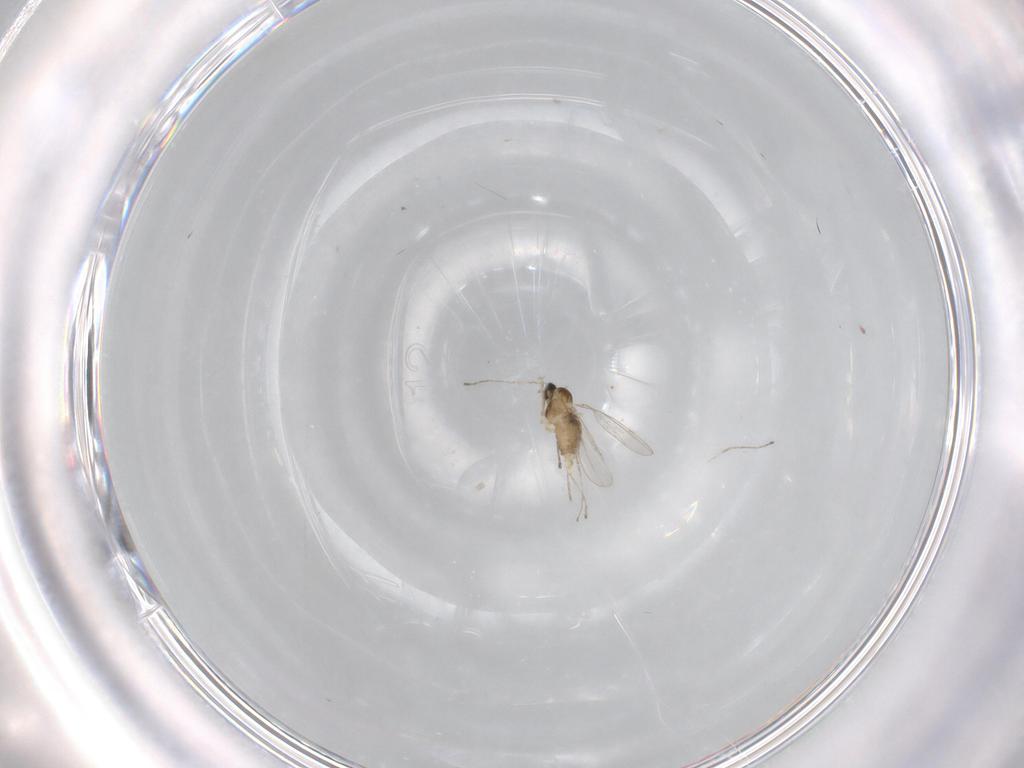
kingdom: Animalia
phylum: Arthropoda
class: Insecta
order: Diptera
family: Cecidomyiidae
